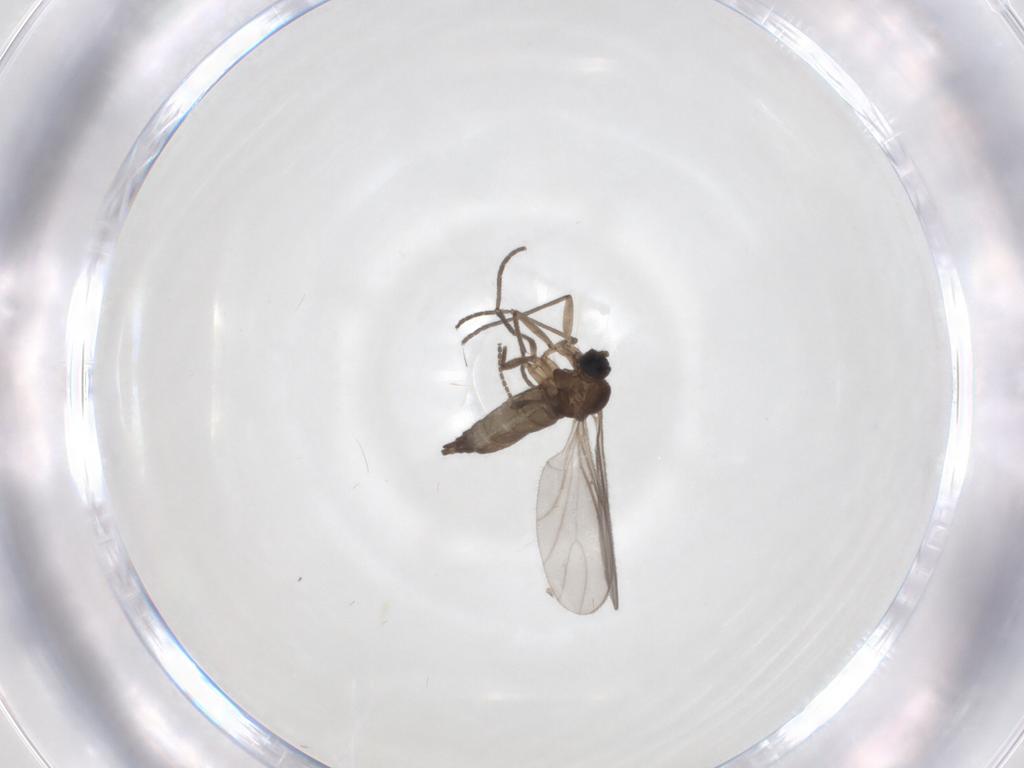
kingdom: Animalia
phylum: Arthropoda
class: Insecta
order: Diptera
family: Sciaridae
